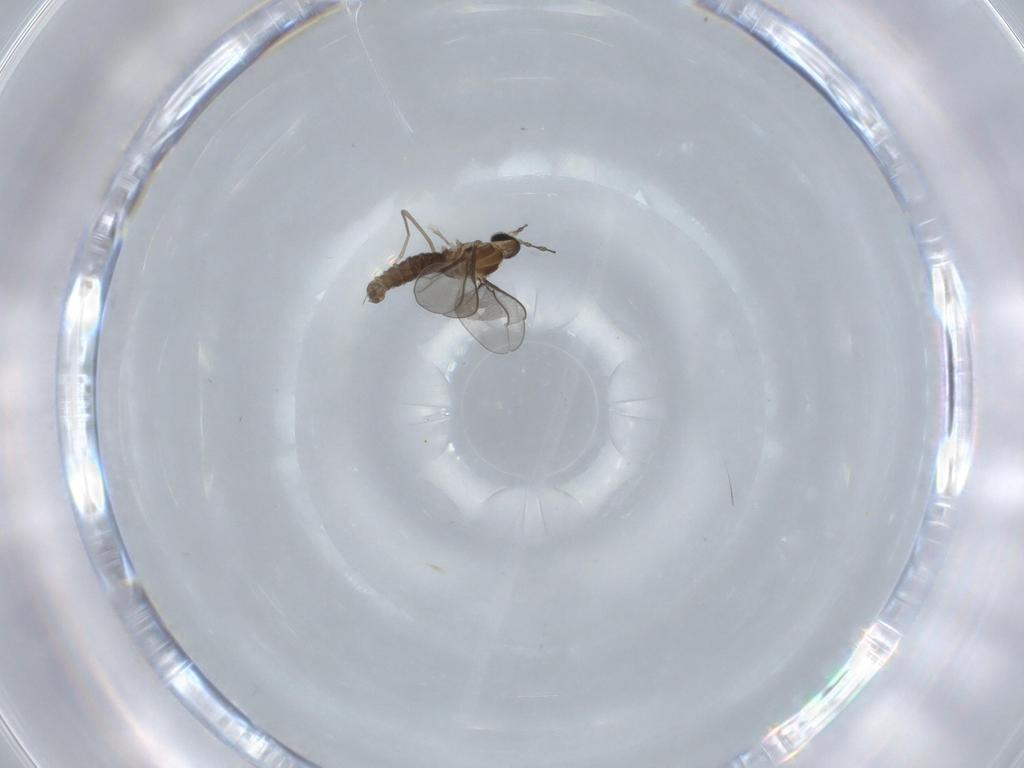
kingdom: Animalia
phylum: Arthropoda
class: Insecta
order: Diptera
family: Cecidomyiidae
